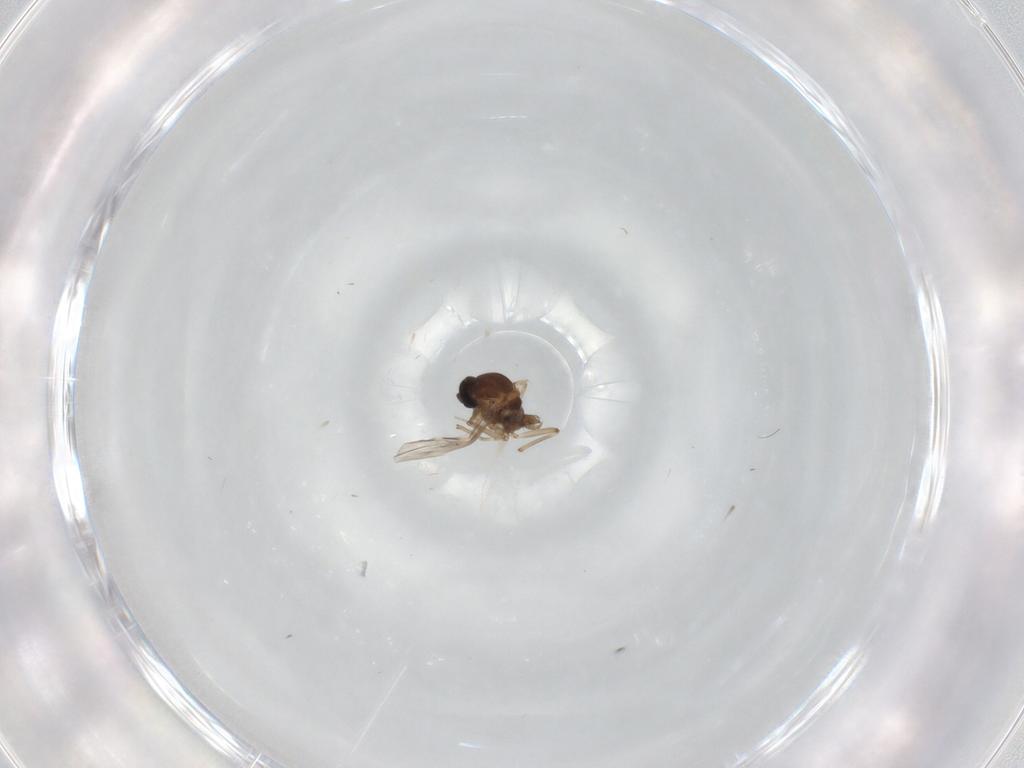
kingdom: Animalia
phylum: Arthropoda
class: Insecta
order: Diptera
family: Ceratopogonidae
